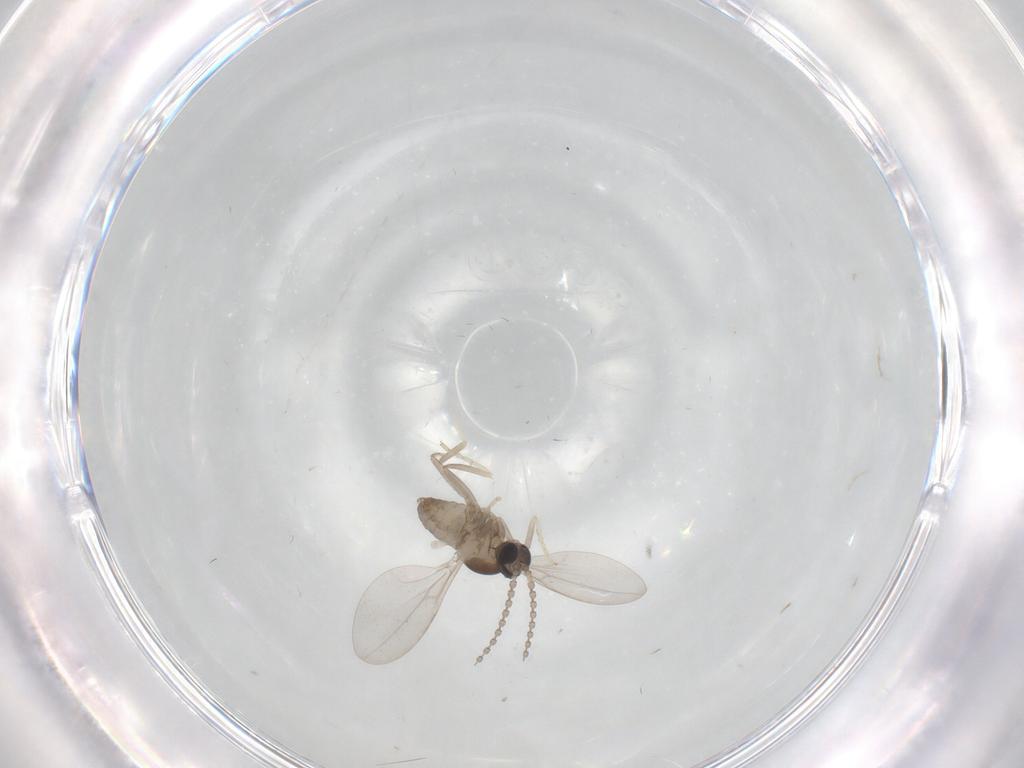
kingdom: Animalia
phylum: Arthropoda
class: Insecta
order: Diptera
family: Cecidomyiidae
